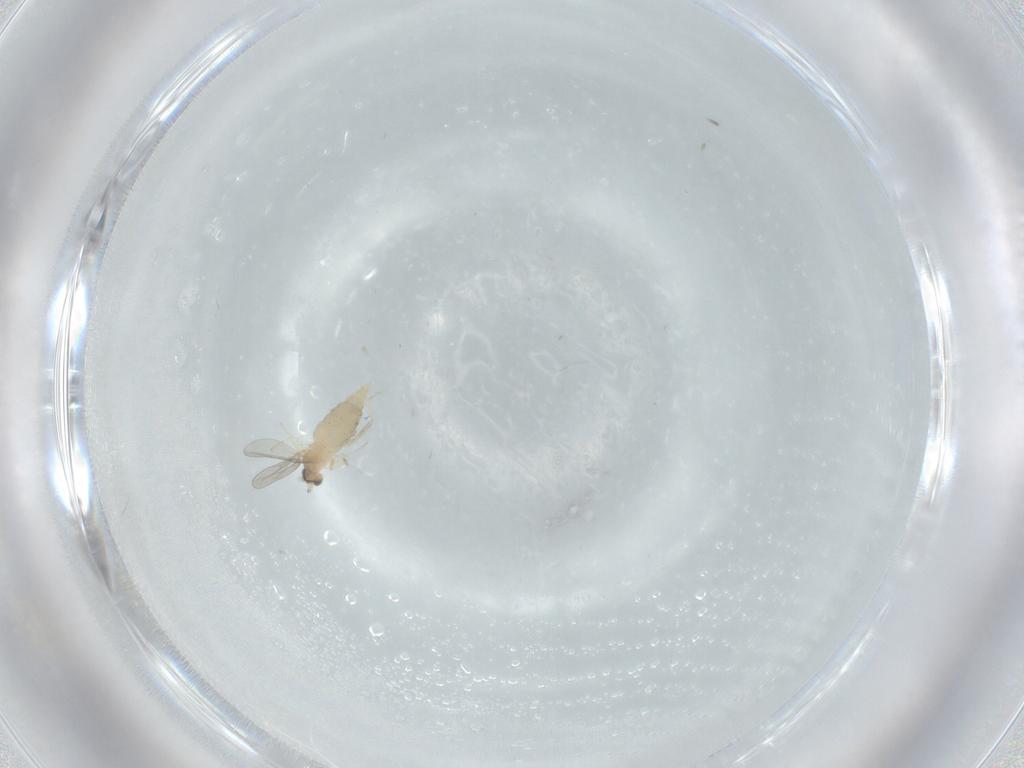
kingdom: Animalia
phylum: Arthropoda
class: Insecta
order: Diptera
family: Cecidomyiidae
